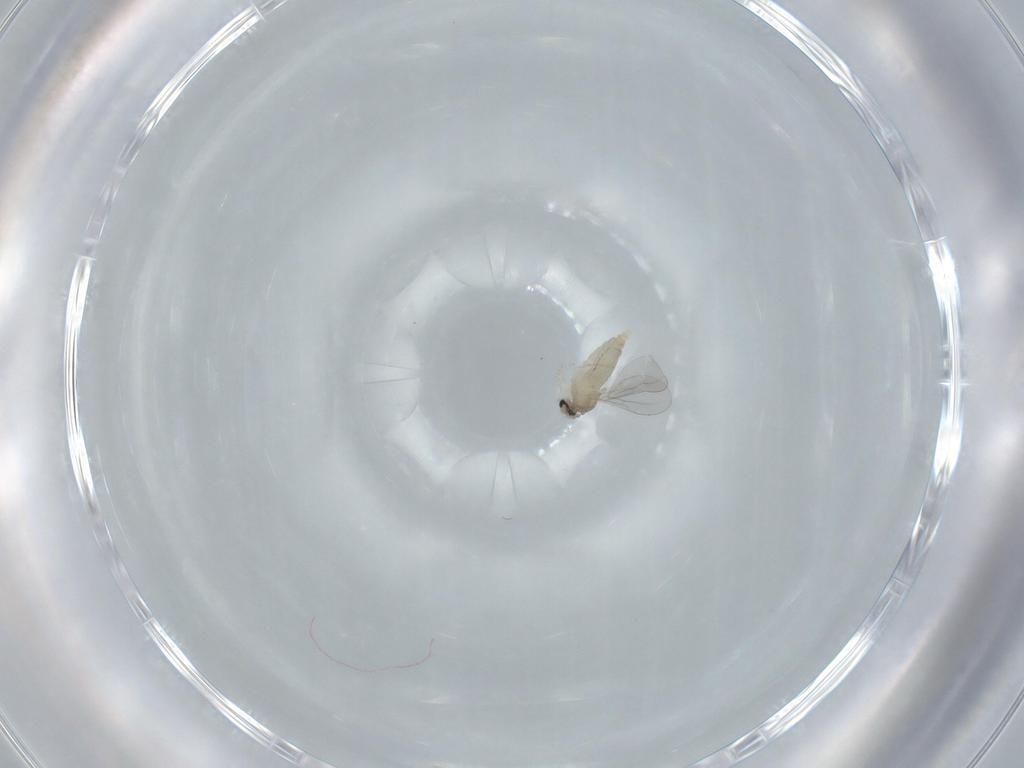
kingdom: Animalia
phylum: Arthropoda
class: Insecta
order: Diptera
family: Cecidomyiidae
